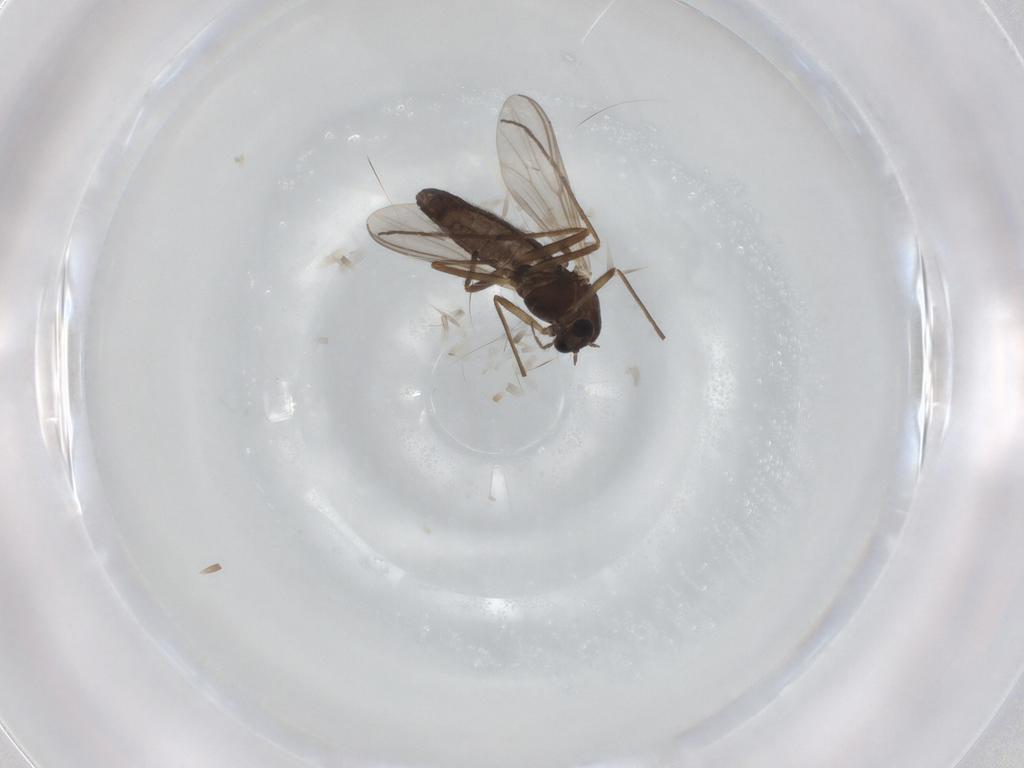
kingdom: Animalia
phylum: Arthropoda
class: Insecta
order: Diptera
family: Chironomidae
